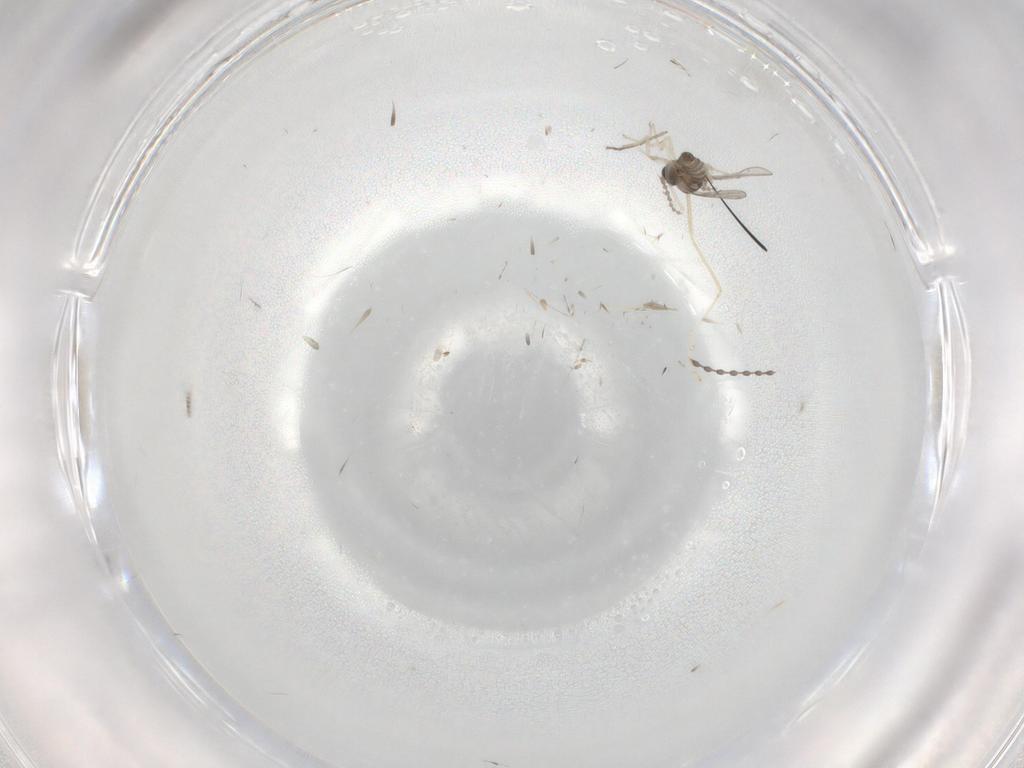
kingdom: Animalia
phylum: Arthropoda
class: Insecta
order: Diptera
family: Chironomidae
